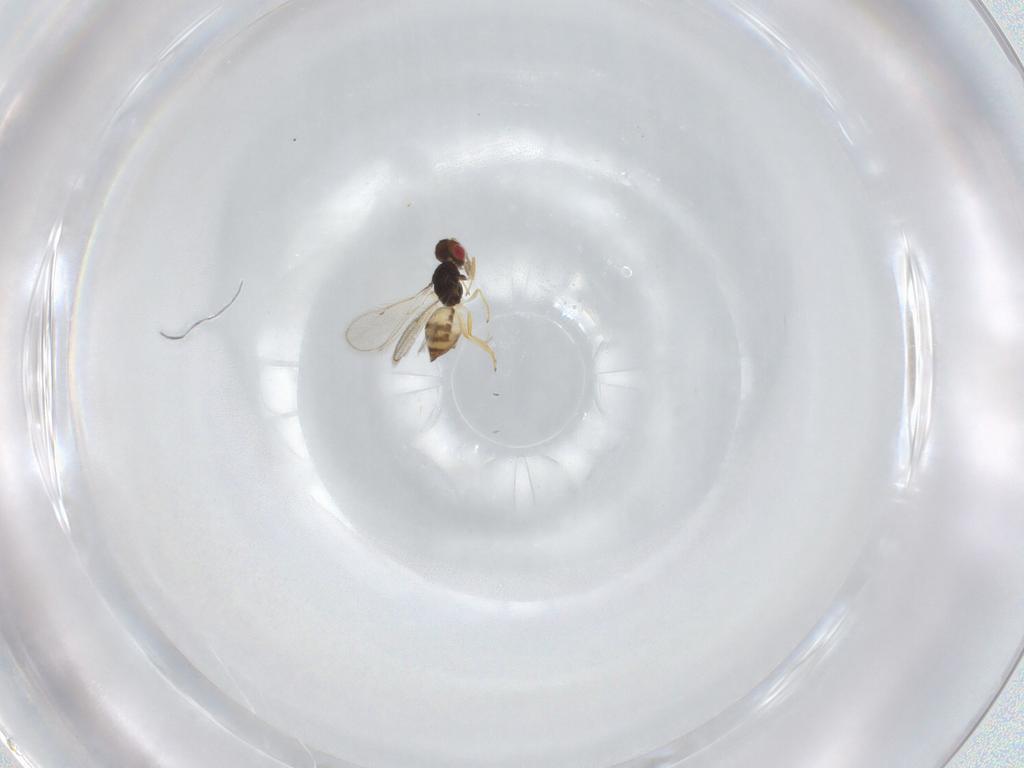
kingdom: Animalia
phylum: Arthropoda
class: Insecta
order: Hymenoptera
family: Eulophidae
